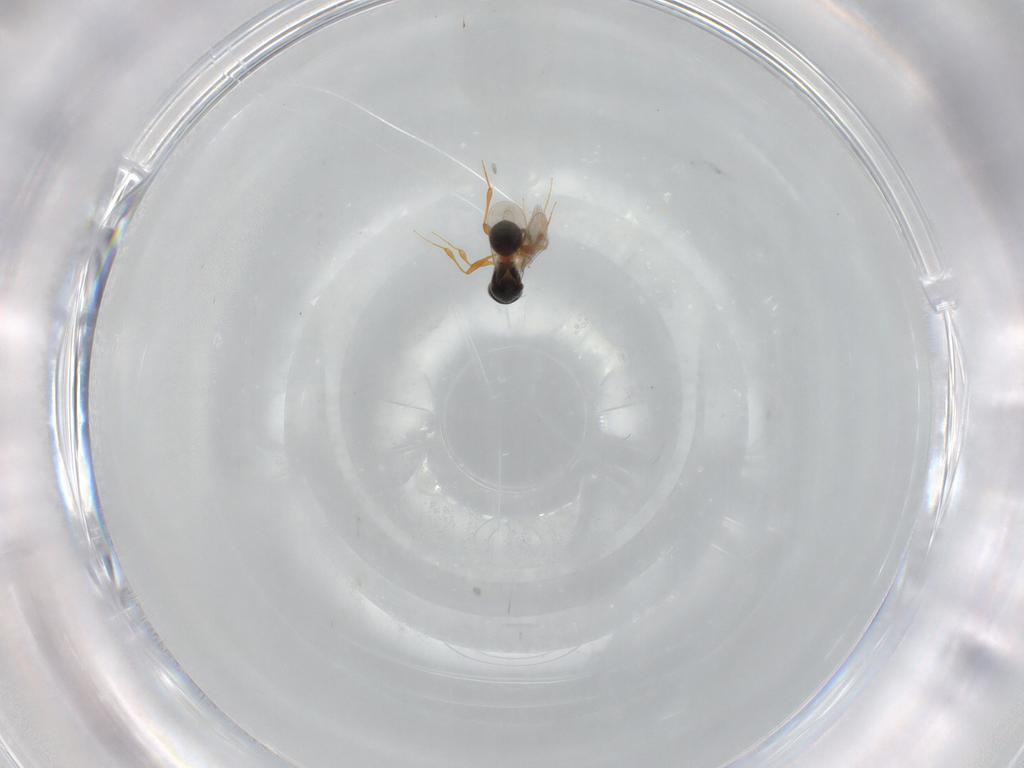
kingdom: Animalia
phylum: Arthropoda
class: Insecta
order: Hymenoptera
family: Platygastridae
